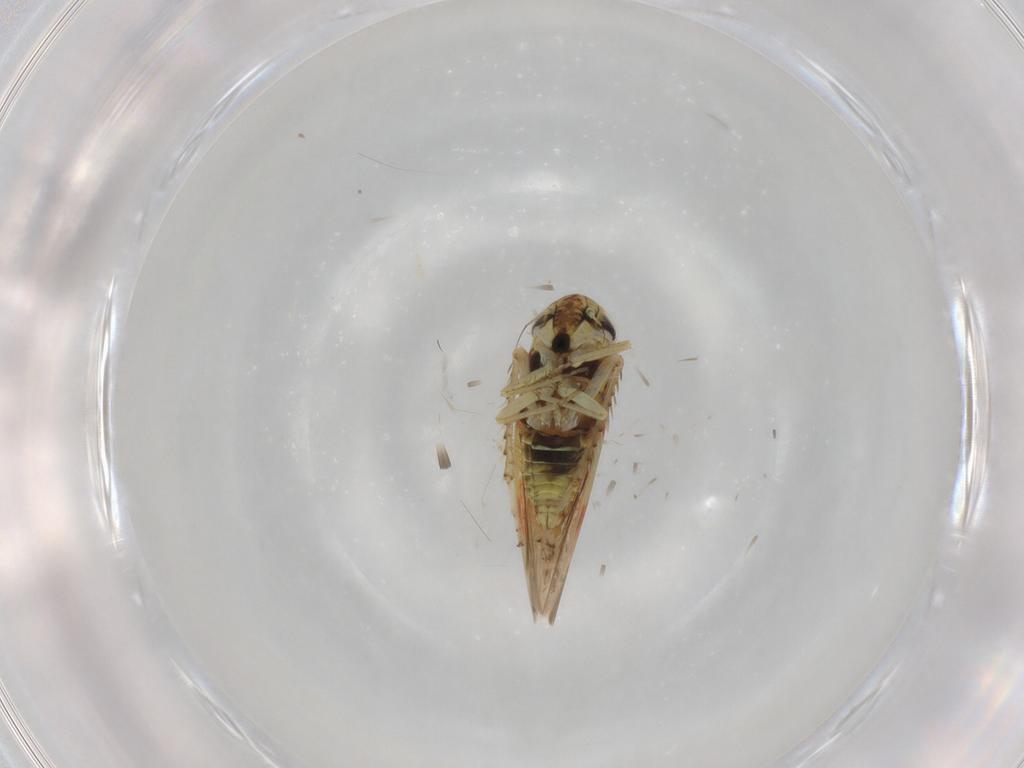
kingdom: Animalia
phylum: Arthropoda
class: Insecta
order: Hemiptera
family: Cicadellidae
